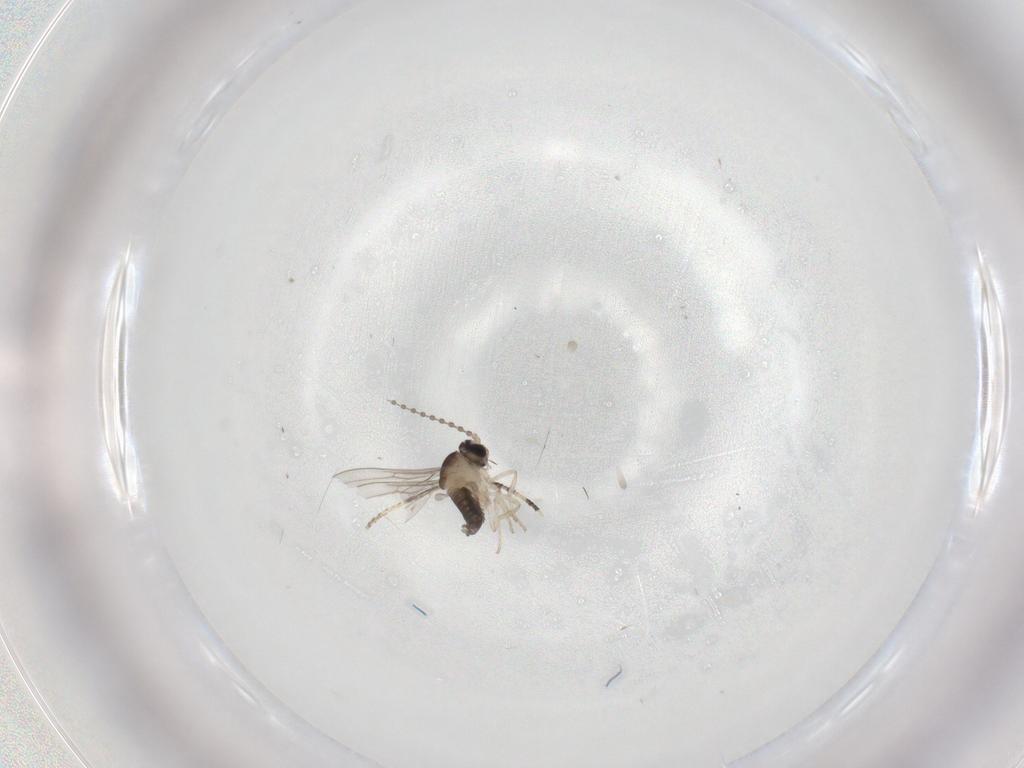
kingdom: Animalia
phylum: Arthropoda
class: Insecta
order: Diptera
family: Cecidomyiidae
